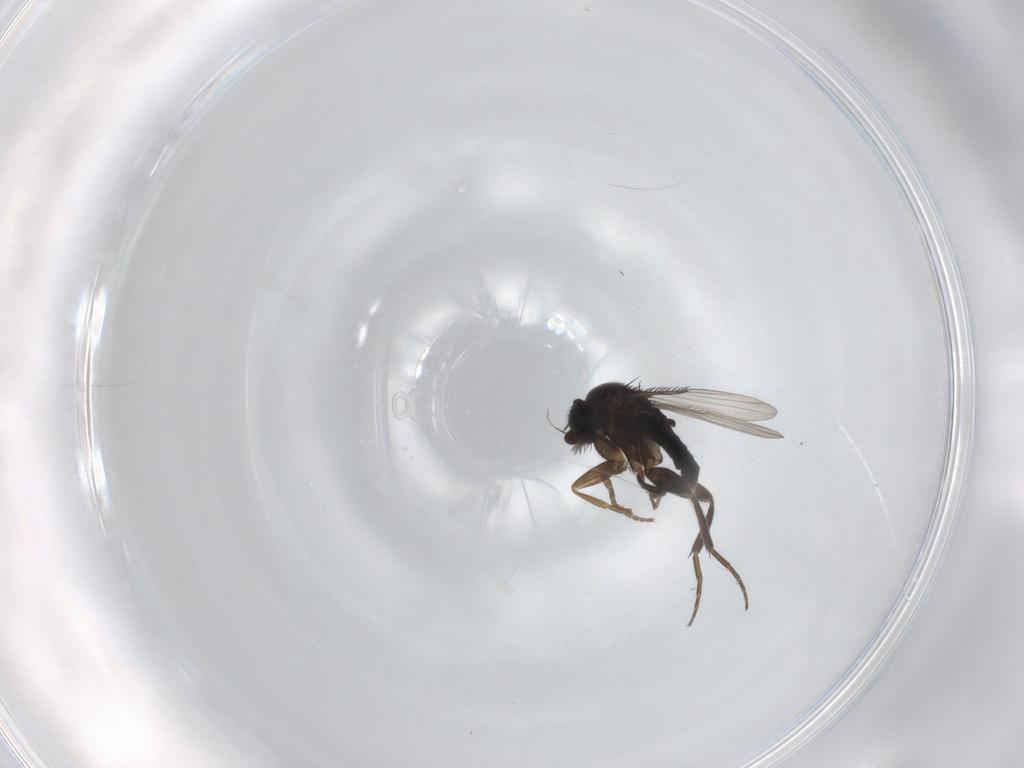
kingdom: Animalia
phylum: Arthropoda
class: Insecta
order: Diptera
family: Phoridae
